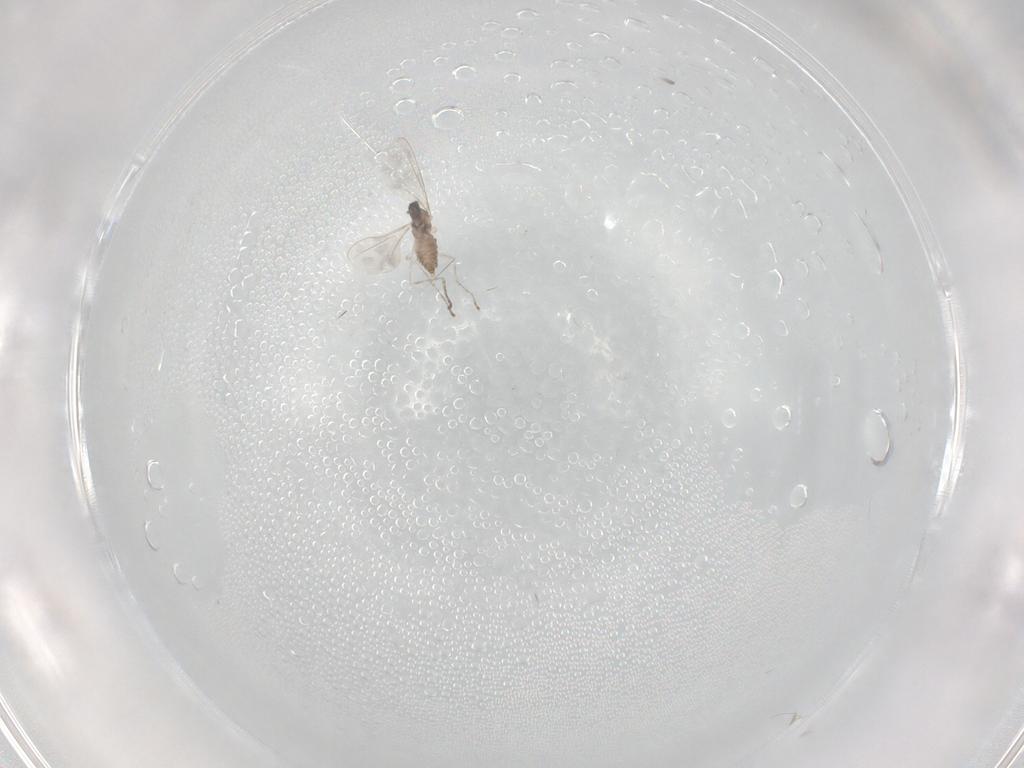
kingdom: Animalia
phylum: Arthropoda
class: Insecta
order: Diptera
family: Cecidomyiidae
